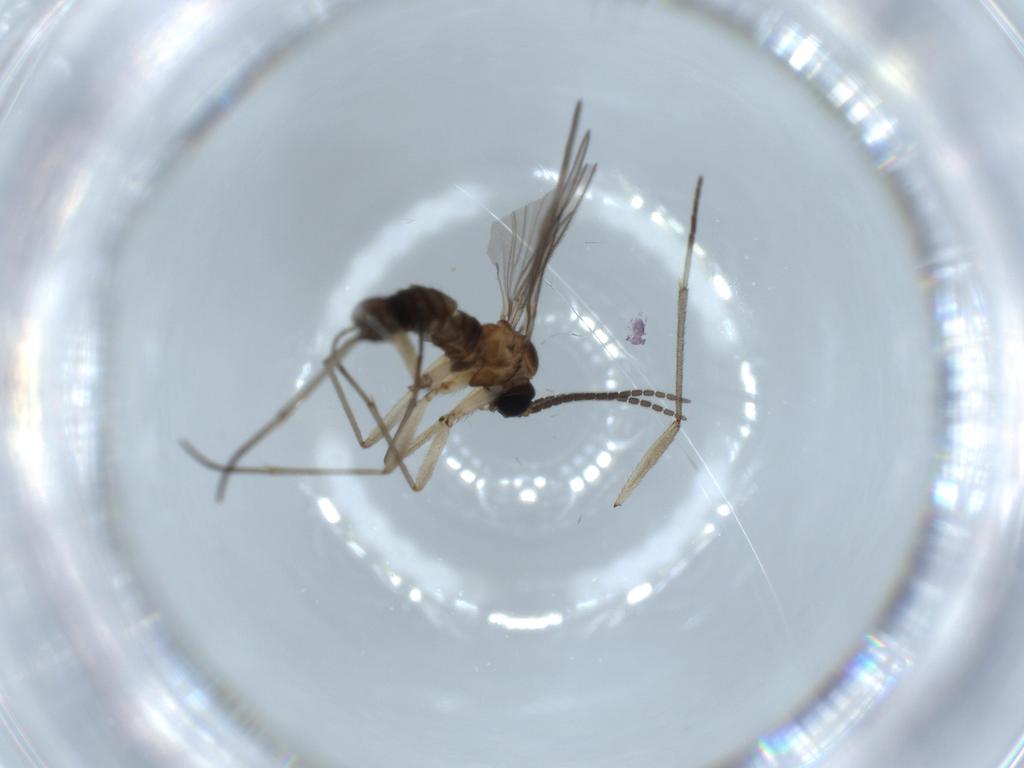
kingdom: Animalia
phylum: Arthropoda
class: Insecta
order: Diptera
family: Sciaridae
